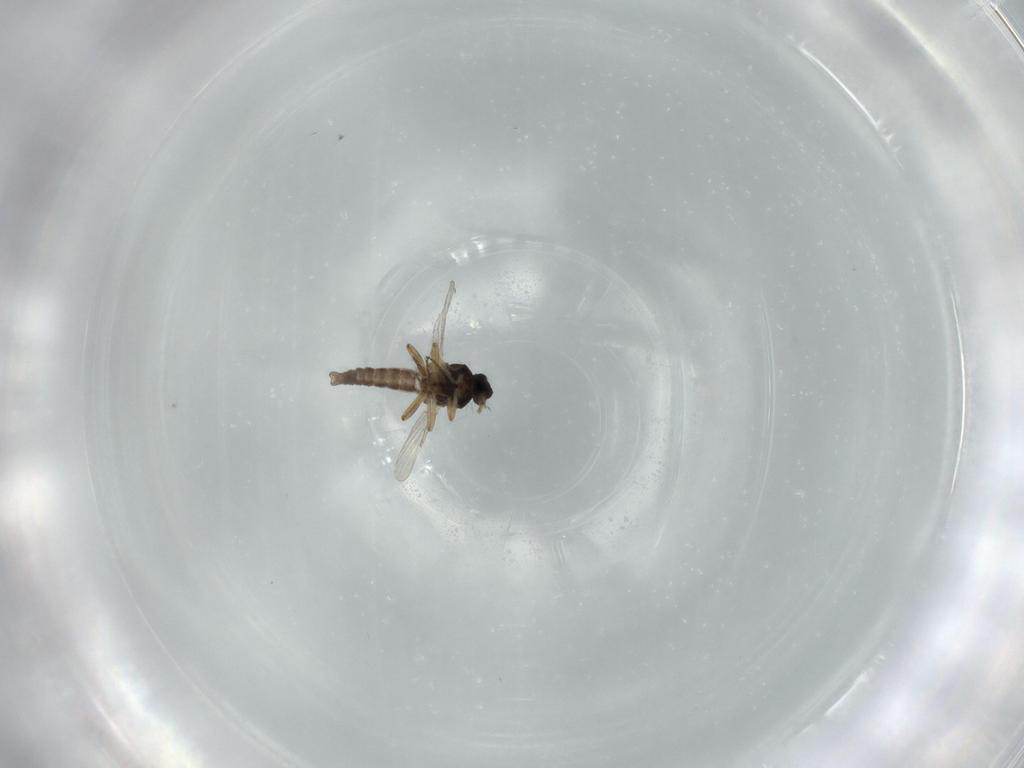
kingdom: Animalia
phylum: Arthropoda
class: Insecta
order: Diptera
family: Ceratopogonidae
